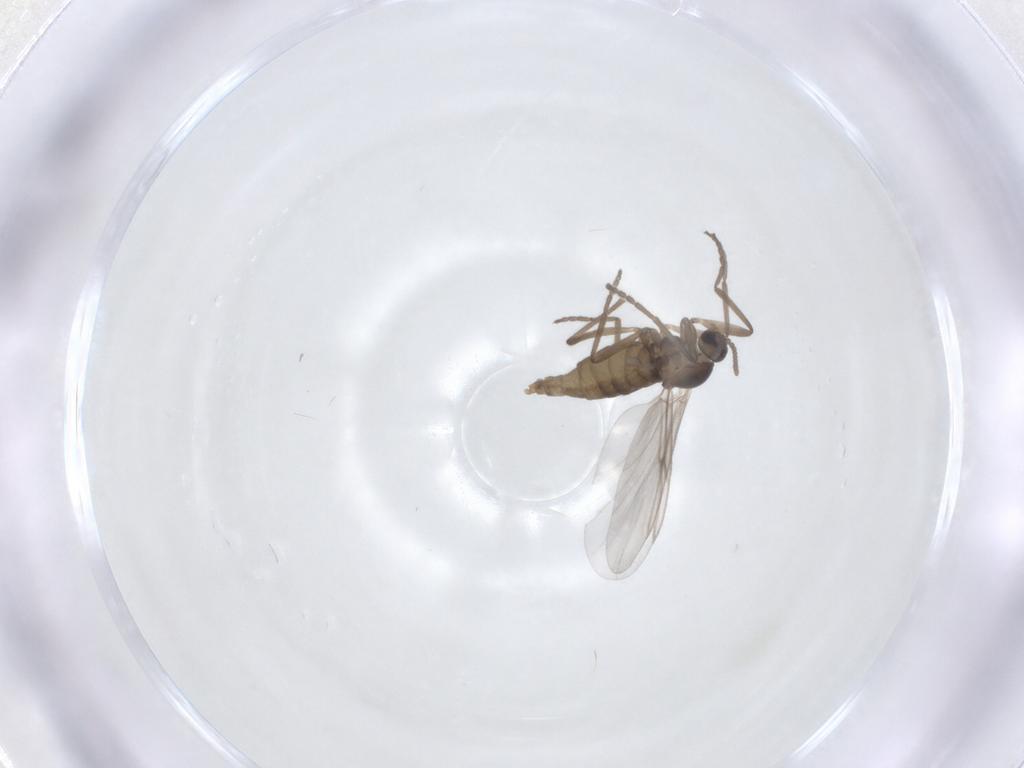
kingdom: Animalia
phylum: Arthropoda
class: Insecta
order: Diptera
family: Cecidomyiidae
